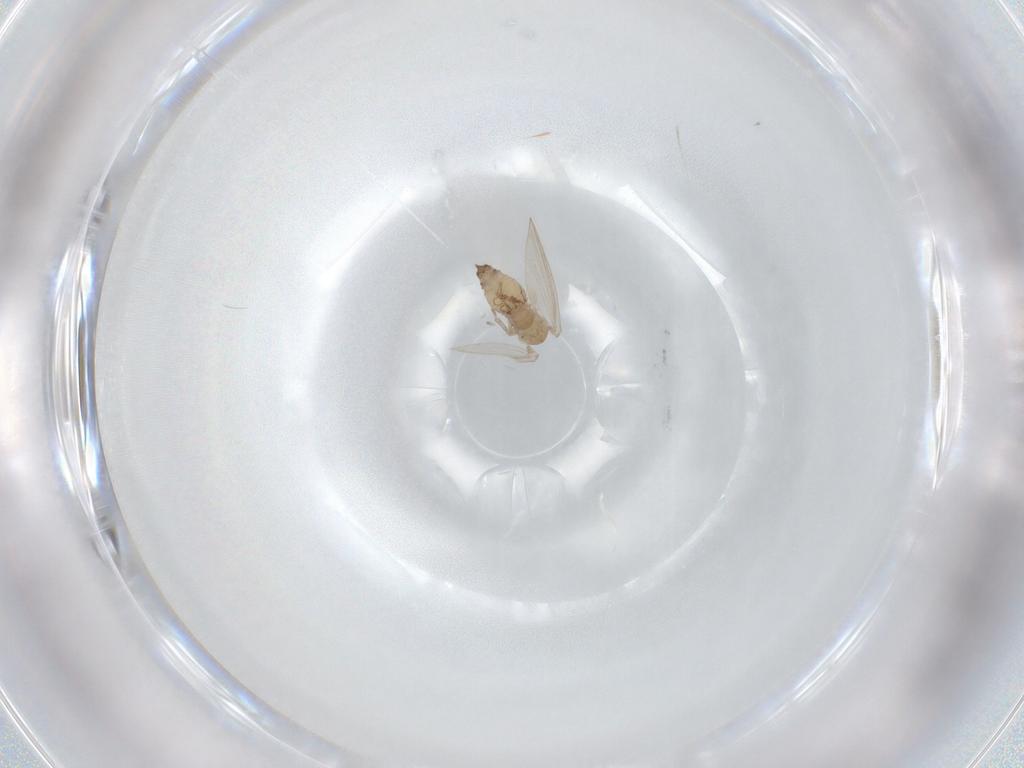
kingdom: Animalia
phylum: Arthropoda
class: Insecta
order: Diptera
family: Psychodidae
